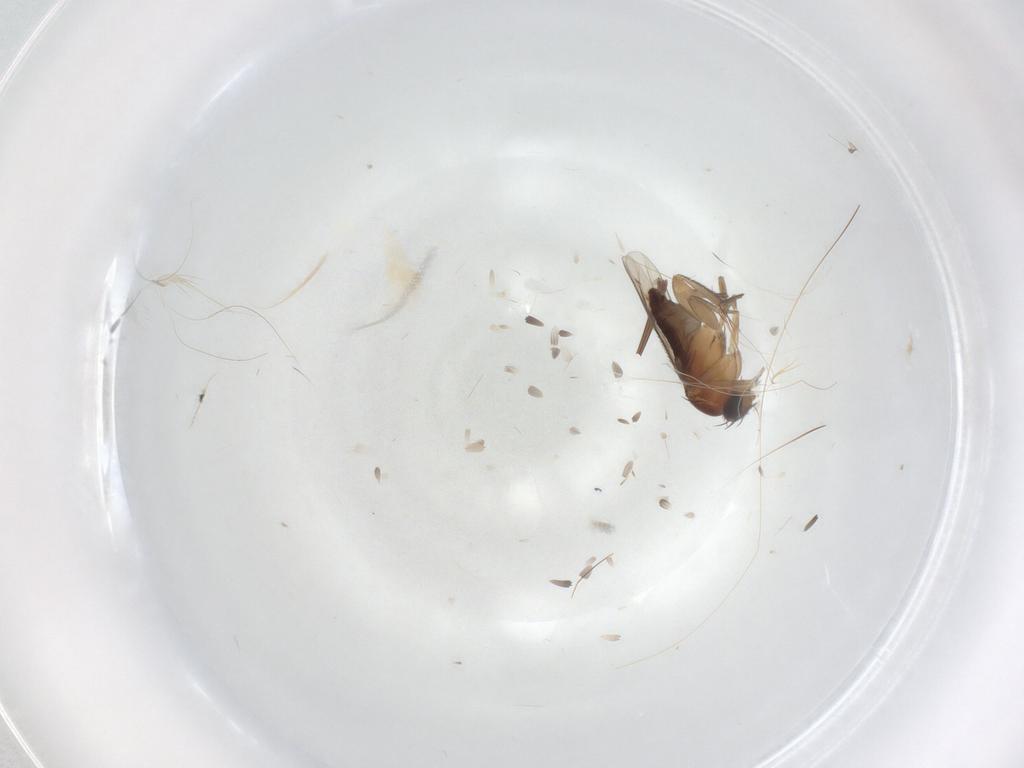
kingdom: Animalia
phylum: Arthropoda
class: Insecta
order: Diptera
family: Phoridae
